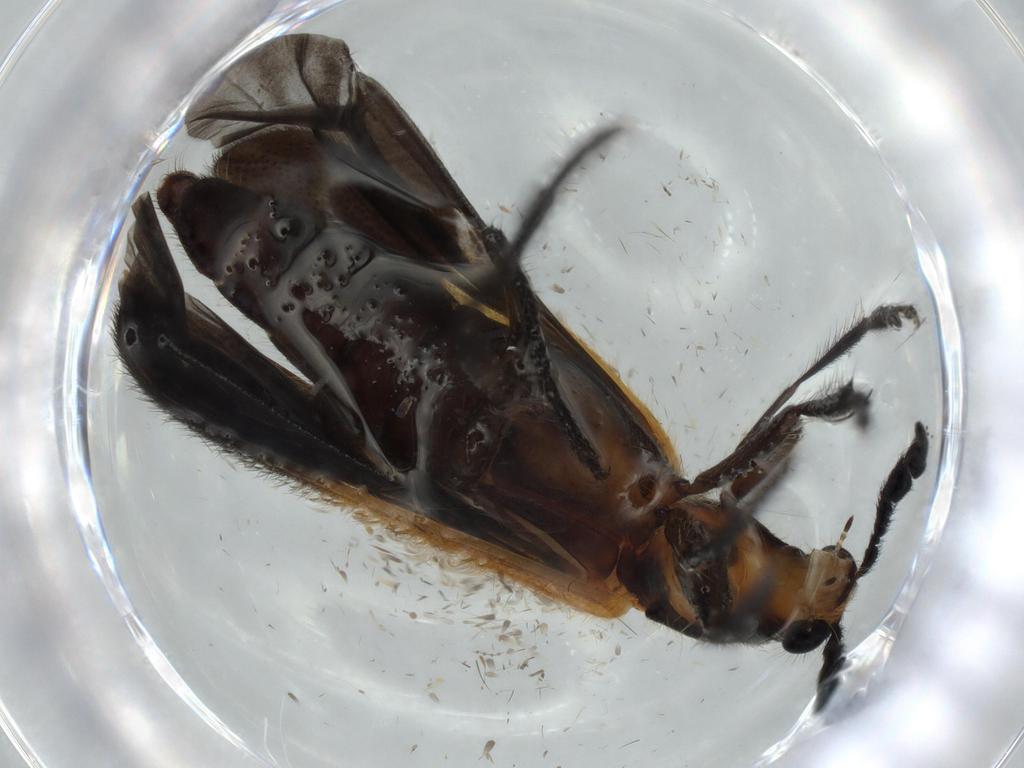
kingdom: Animalia
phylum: Arthropoda
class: Insecta
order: Coleoptera
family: Cleridae
